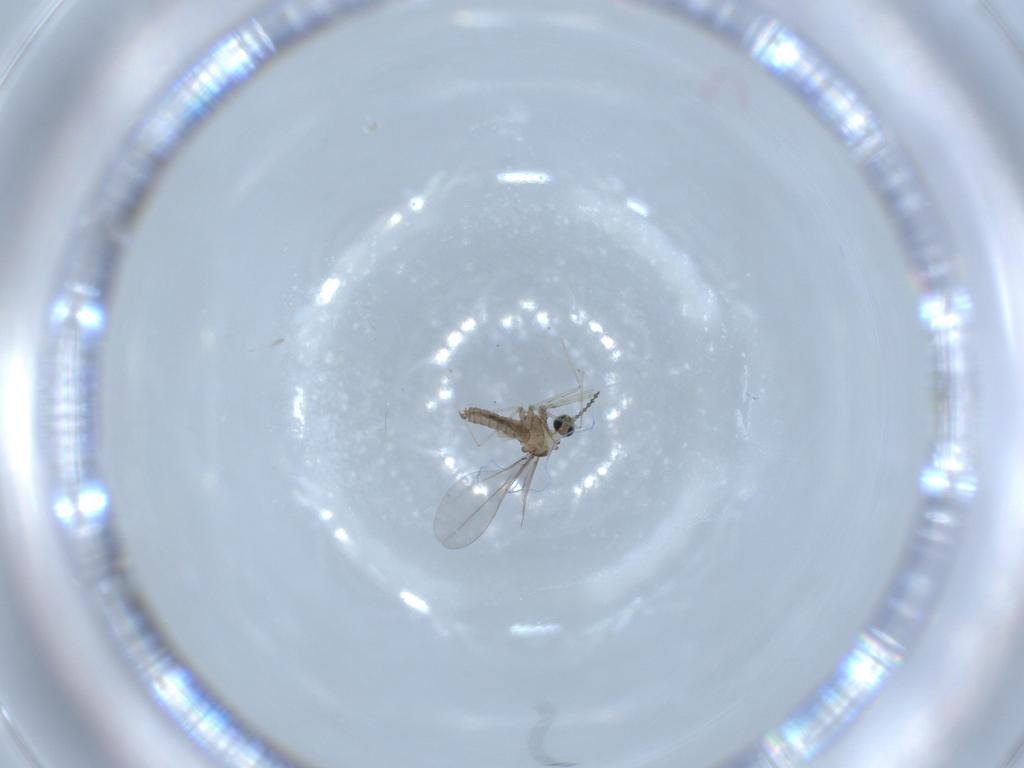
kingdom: Animalia
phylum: Arthropoda
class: Insecta
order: Diptera
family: Cecidomyiidae
